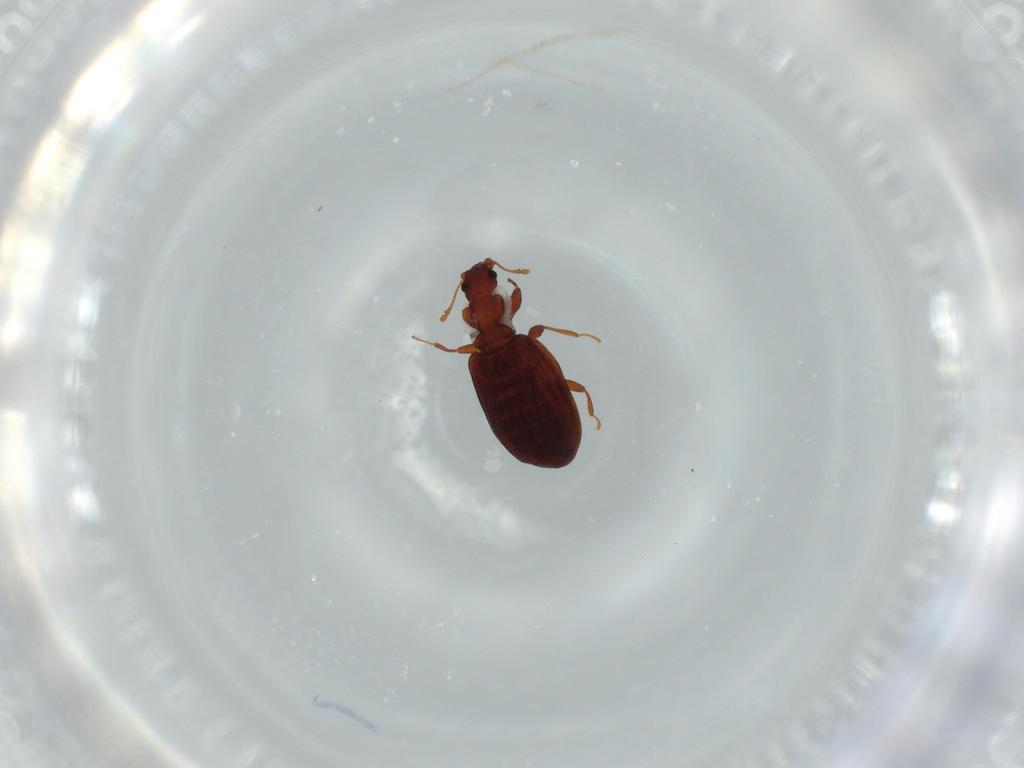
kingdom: Animalia
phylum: Arthropoda
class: Insecta
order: Coleoptera
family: Latridiidae
